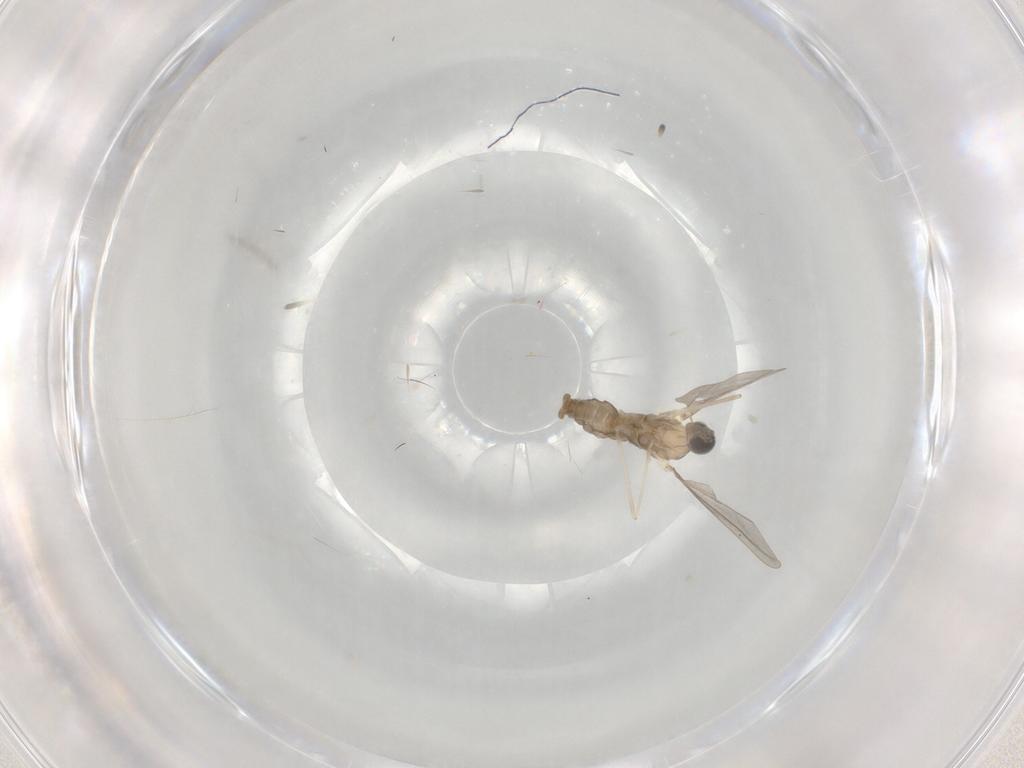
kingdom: Animalia
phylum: Arthropoda
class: Insecta
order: Diptera
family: Cecidomyiidae
